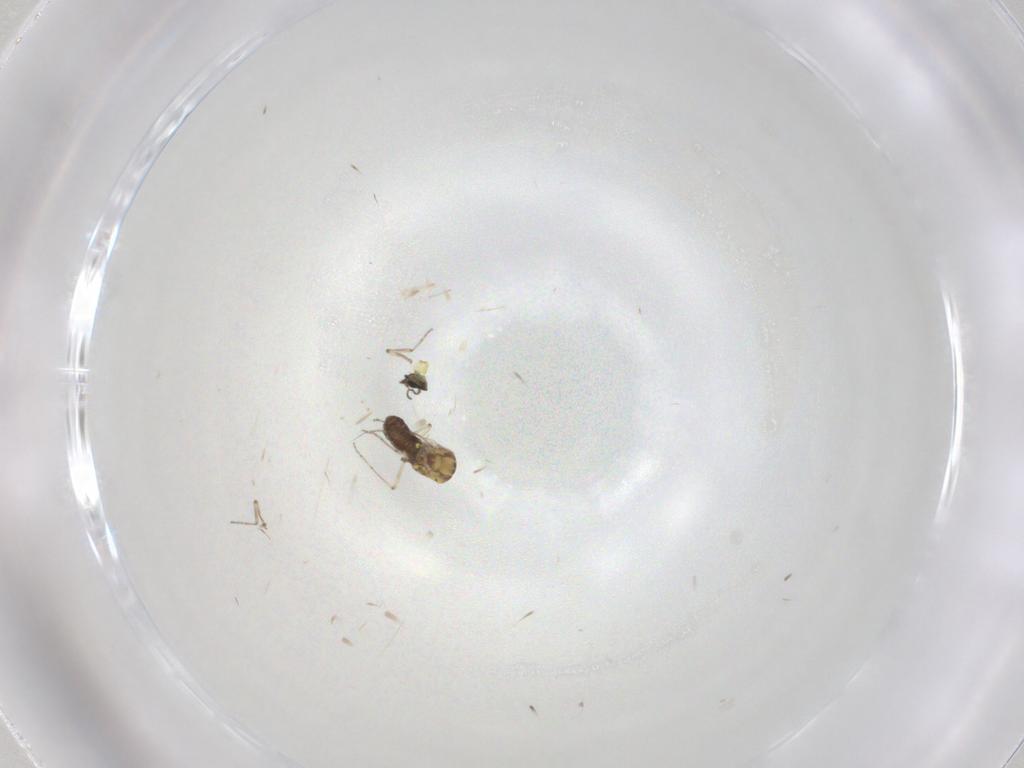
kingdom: Animalia
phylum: Arthropoda
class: Insecta
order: Diptera
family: Ceratopogonidae
